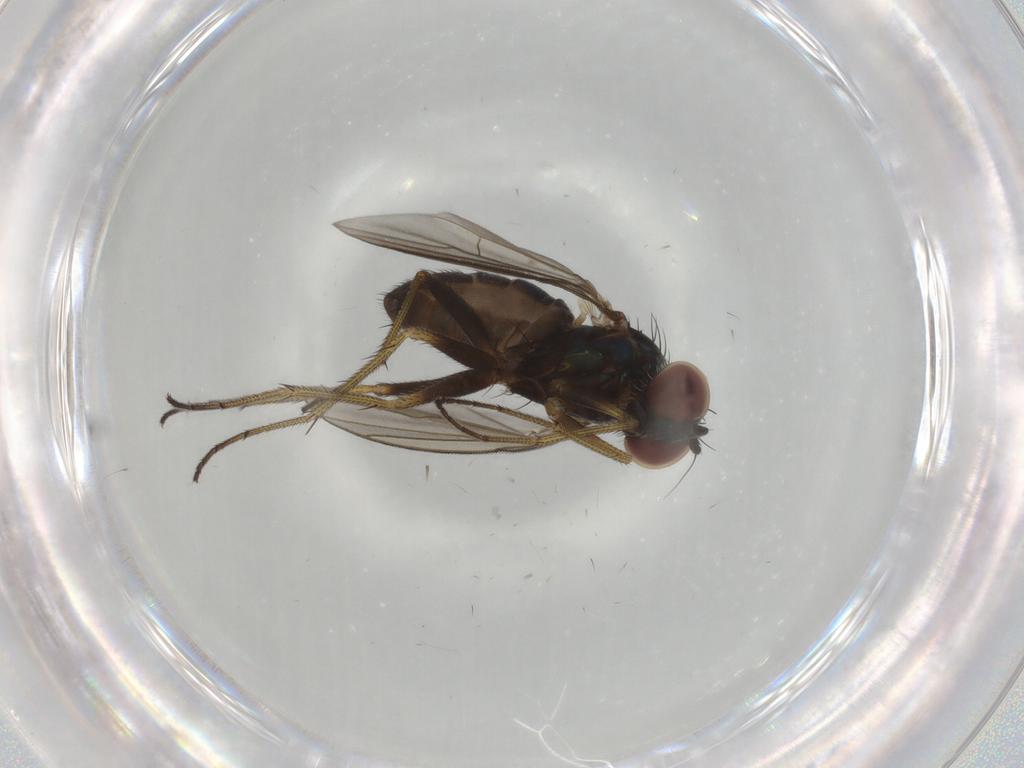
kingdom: Animalia
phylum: Arthropoda
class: Insecta
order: Diptera
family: Dolichopodidae
